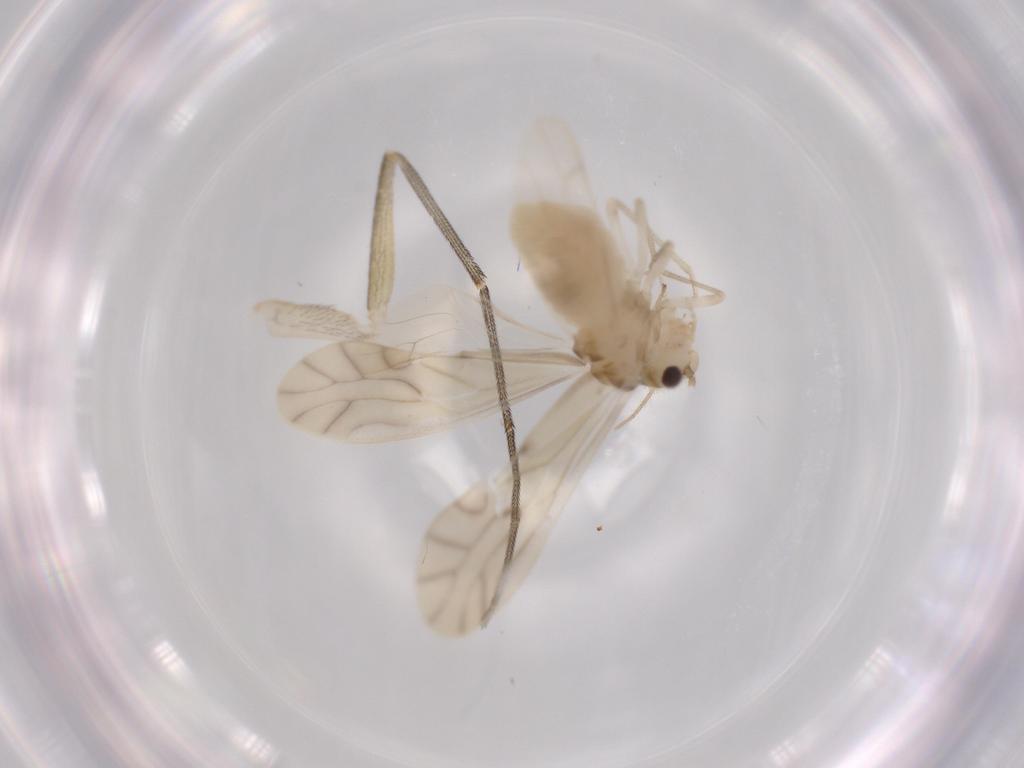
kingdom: Animalia
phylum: Arthropoda
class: Insecta
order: Psocodea
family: Caeciliusidae
